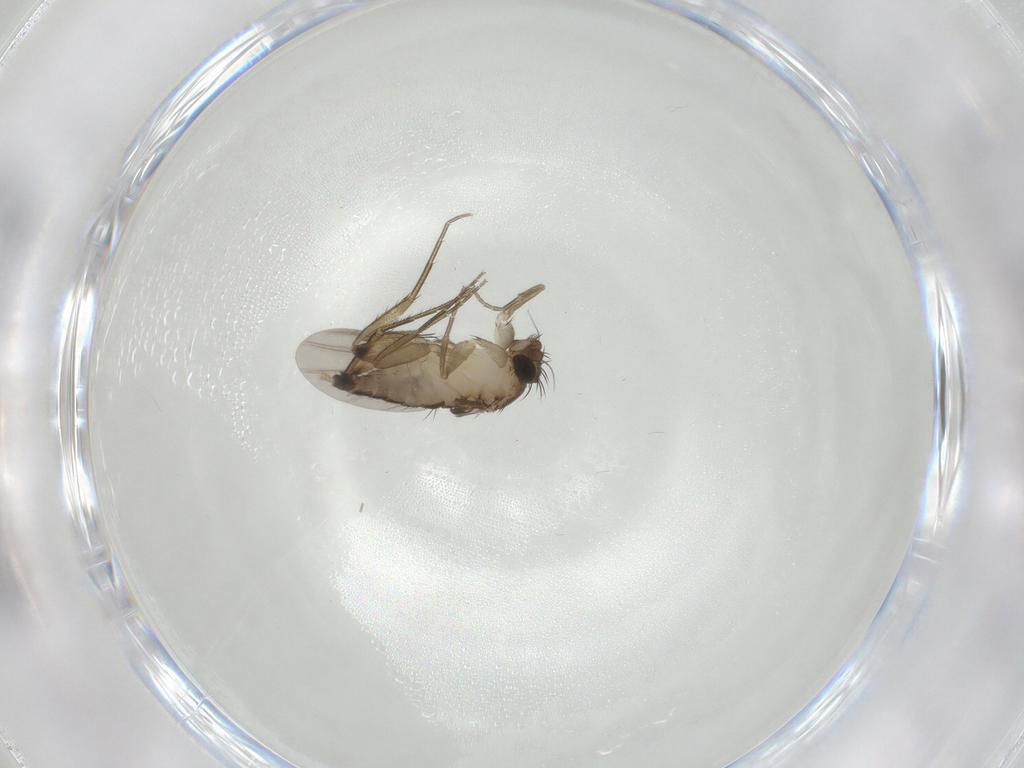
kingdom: Animalia
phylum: Arthropoda
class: Insecta
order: Diptera
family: Phoridae
